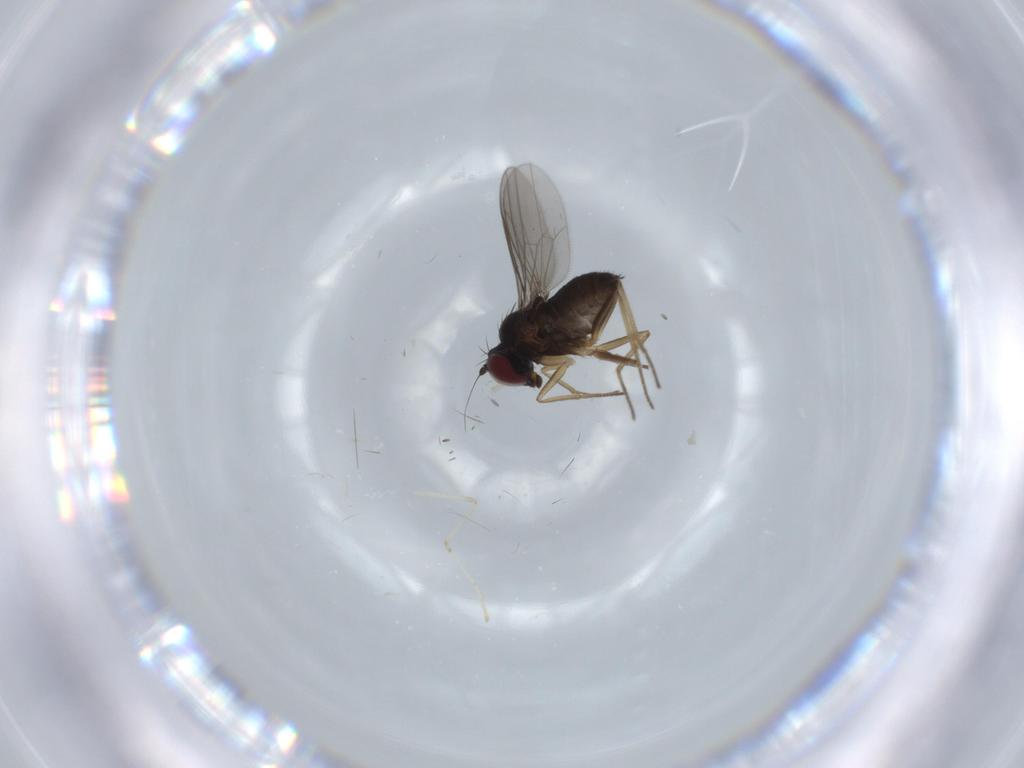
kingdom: Animalia
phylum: Arthropoda
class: Insecta
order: Diptera
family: Dolichopodidae
